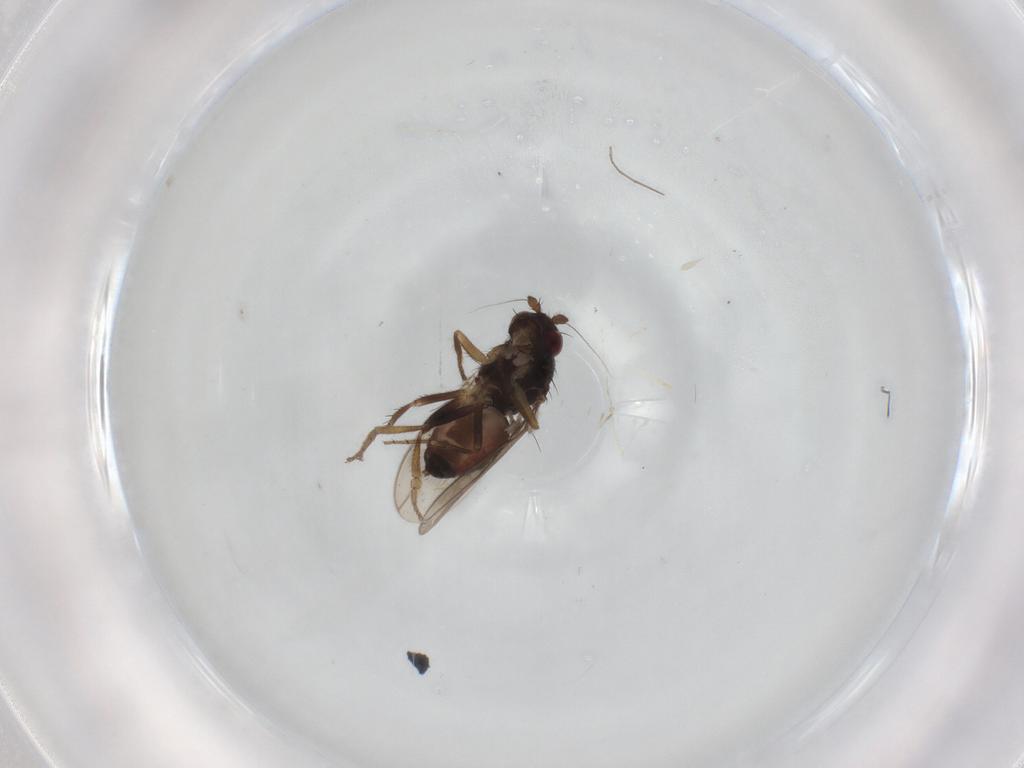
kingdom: Animalia
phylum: Arthropoda
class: Insecta
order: Diptera
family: Sphaeroceridae
